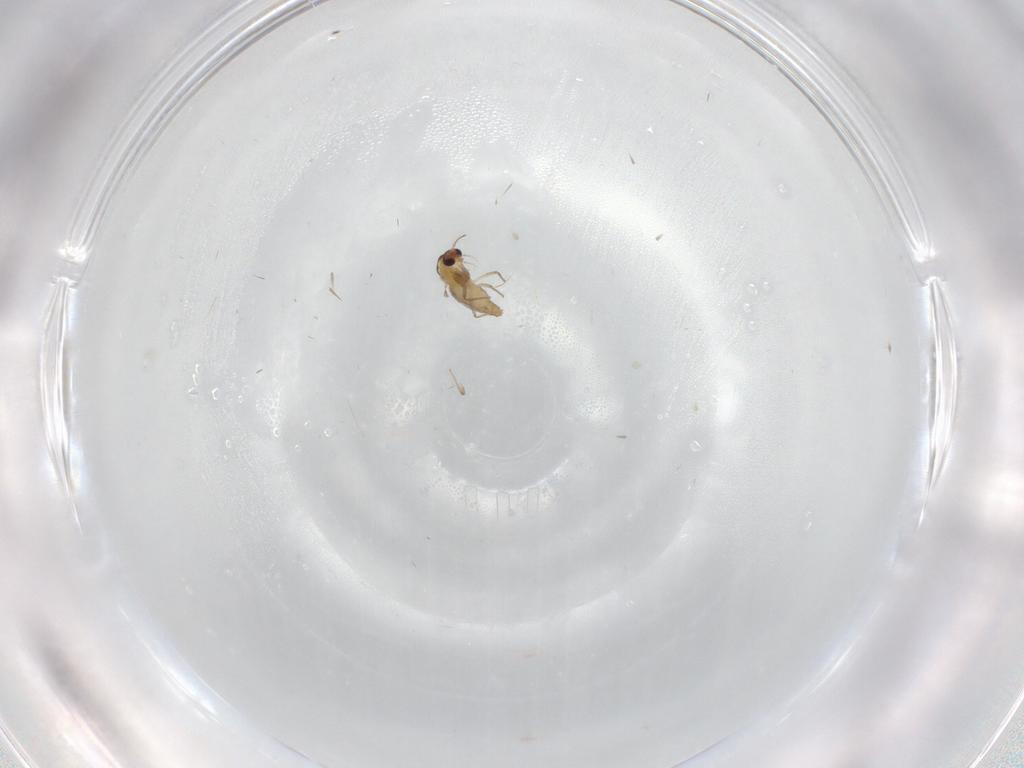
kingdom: Animalia
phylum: Arthropoda
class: Insecta
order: Diptera
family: Chironomidae
